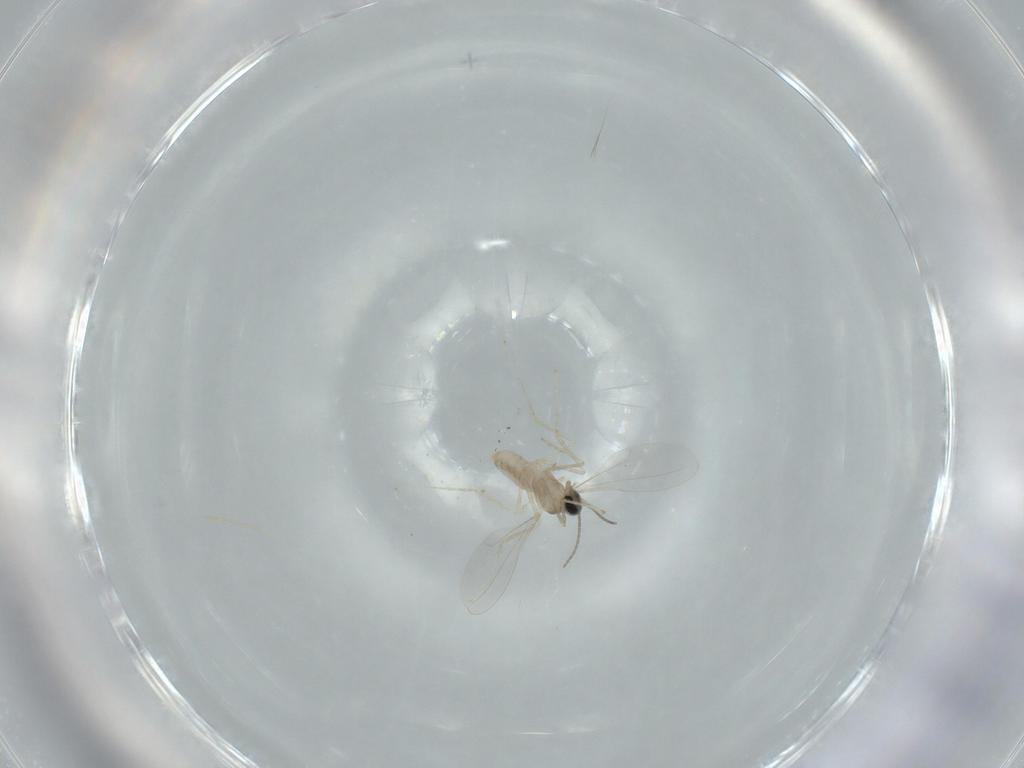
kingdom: Animalia
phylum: Arthropoda
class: Insecta
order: Diptera
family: Cecidomyiidae
